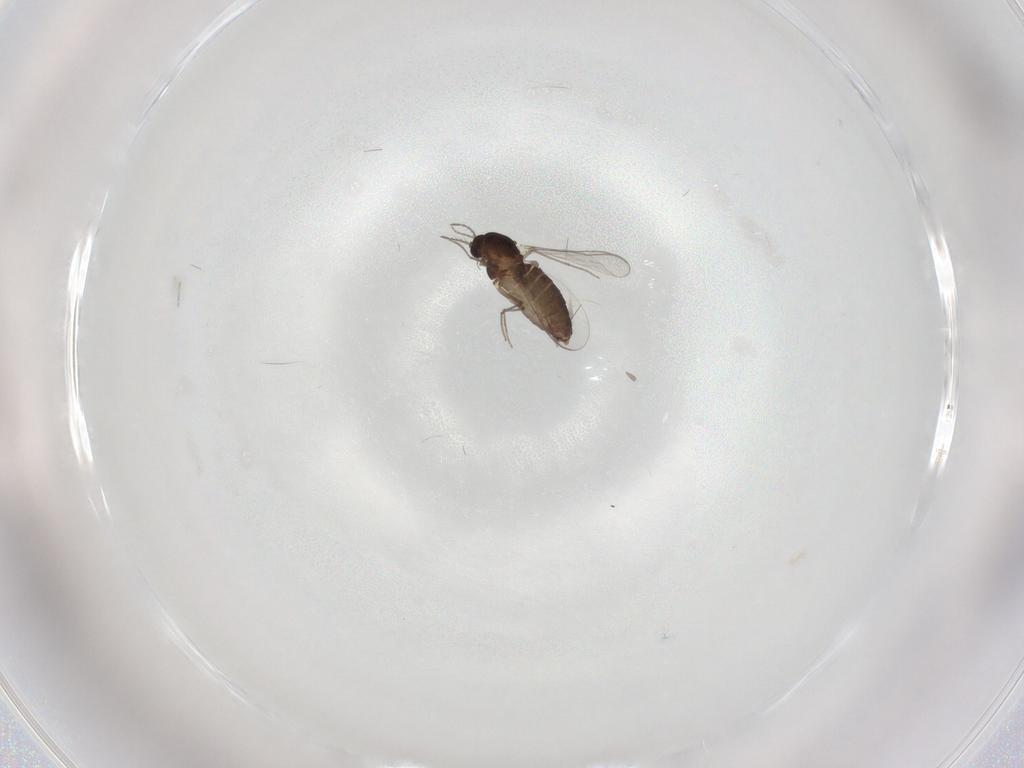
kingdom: Animalia
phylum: Arthropoda
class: Insecta
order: Diptera
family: Chironomidae
